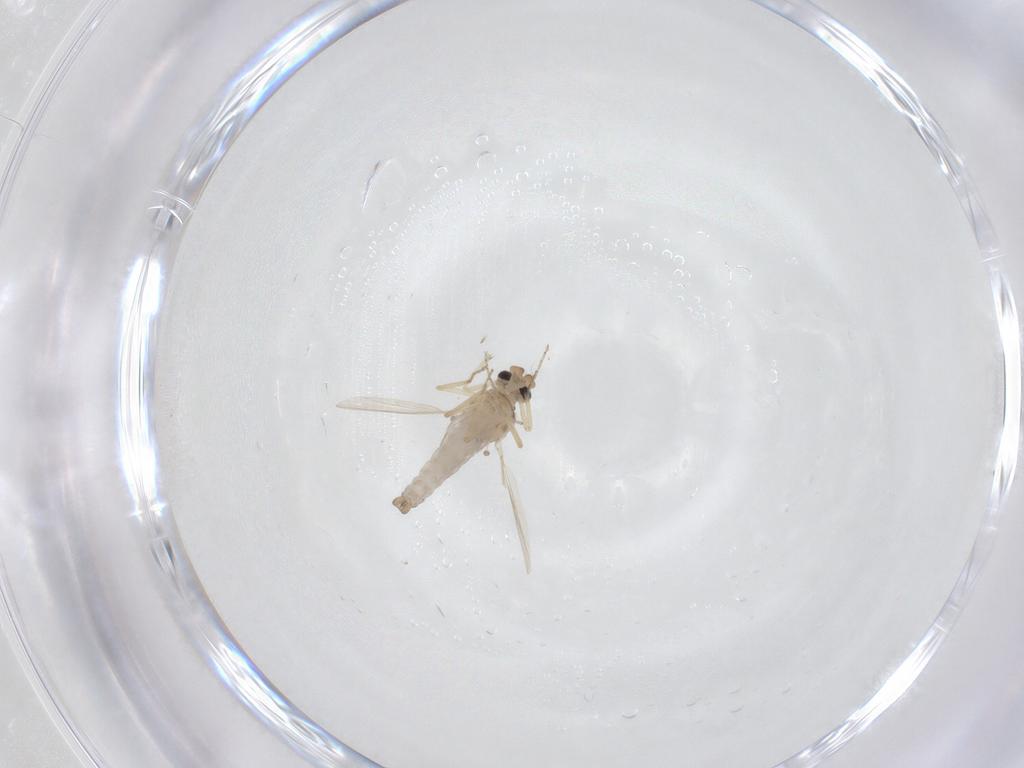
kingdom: Animalia
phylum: Arthropoda
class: Insecta
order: Diptera
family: Ceratopogonidae
